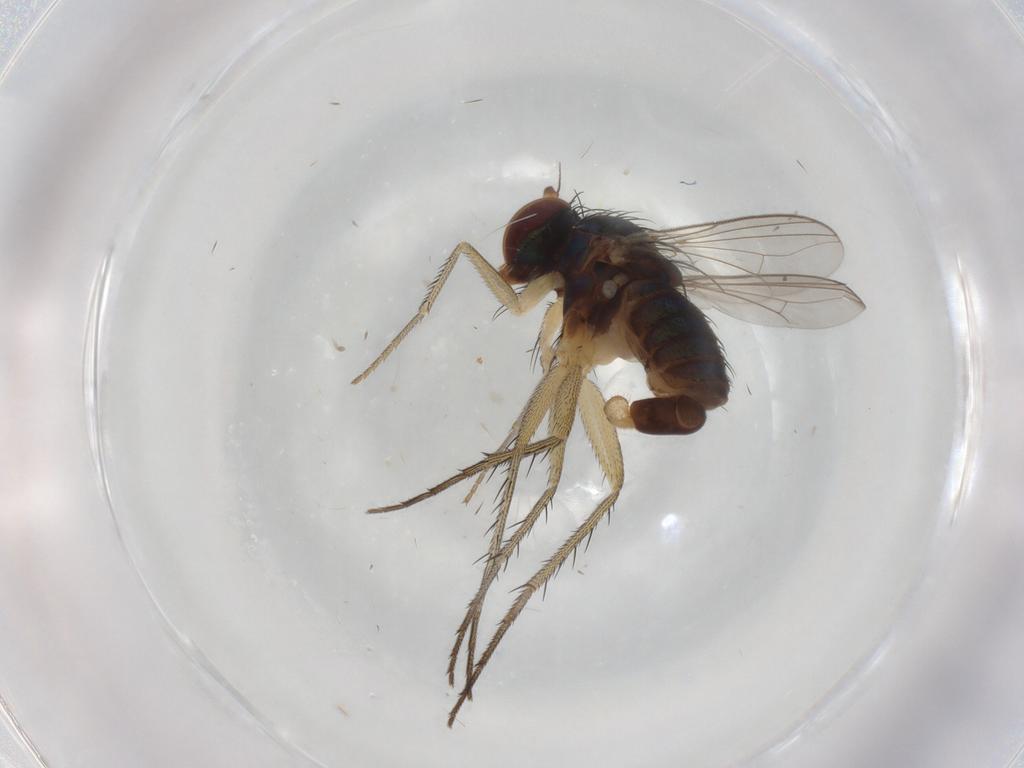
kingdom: Animalia
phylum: Arthropoda
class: Insecta
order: Diptera
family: Dolichopodidae
